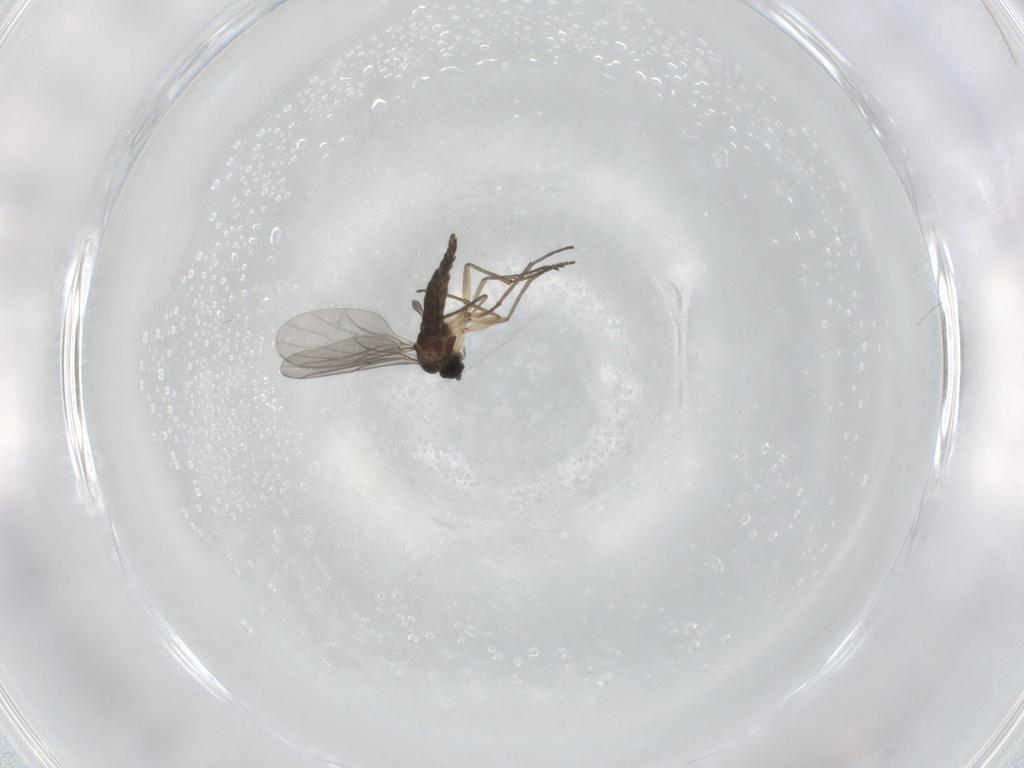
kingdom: Animalia
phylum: Arthropoda
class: Insecta
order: Diptera
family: Sciaridae
